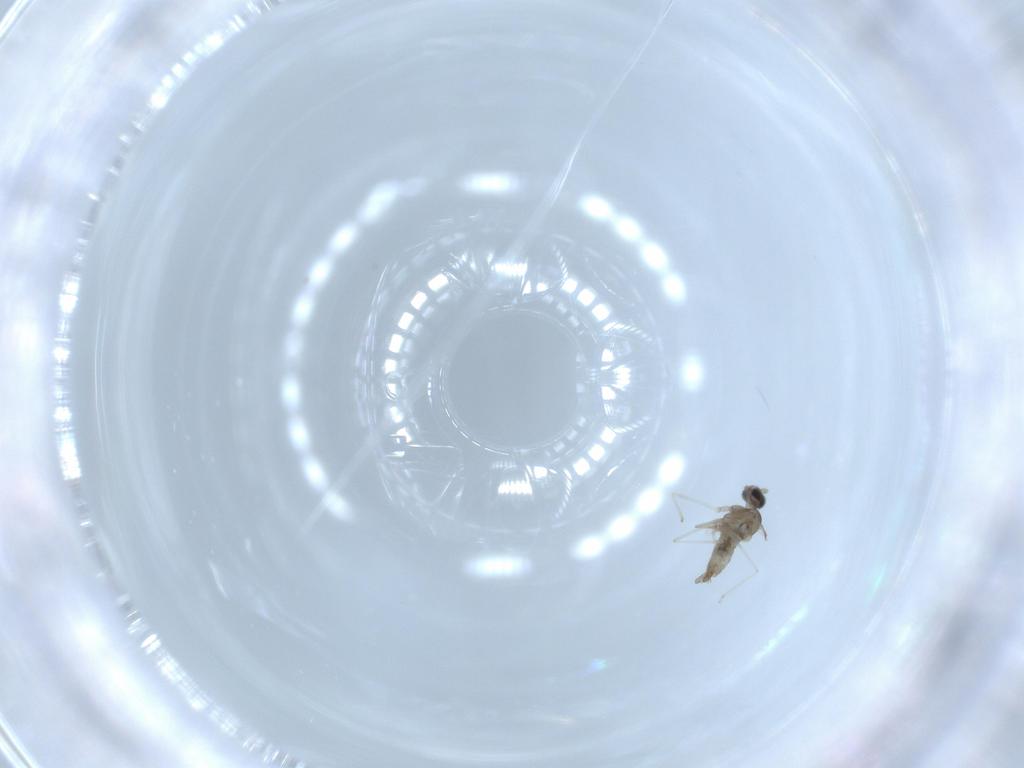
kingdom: Animalia
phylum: Arthropoda
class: Insecta
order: Diptera
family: Cecidomyiidae
